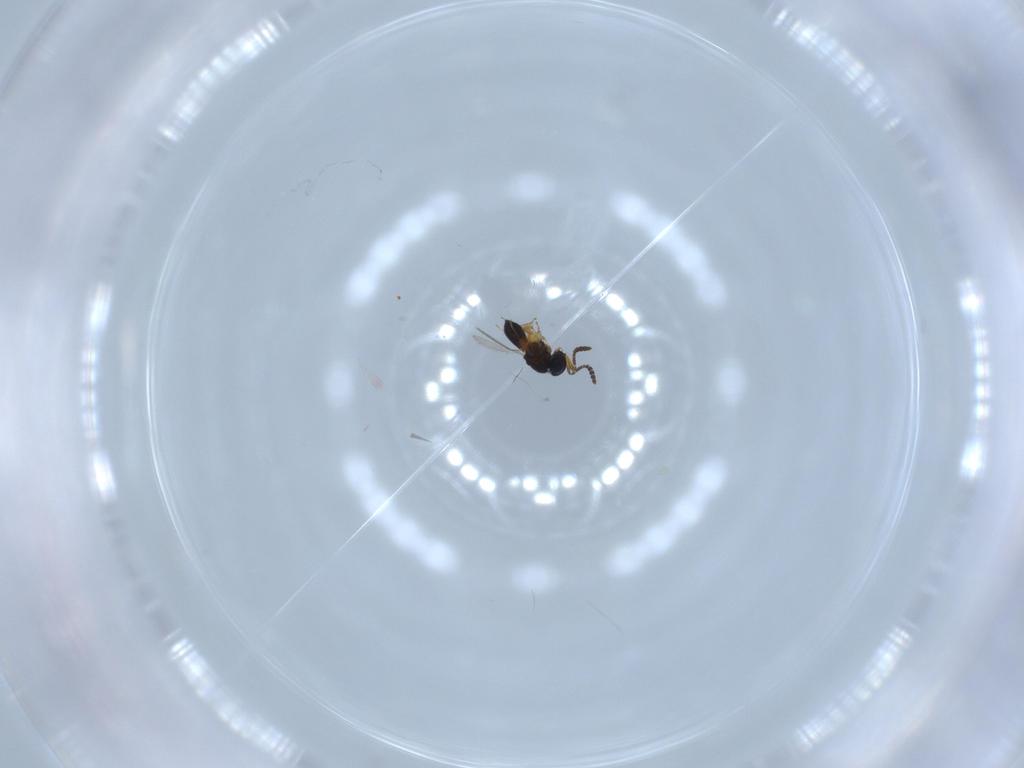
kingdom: Animalia
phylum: Arthropoda
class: Insecta
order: Hymenoptera
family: Scelionidae
